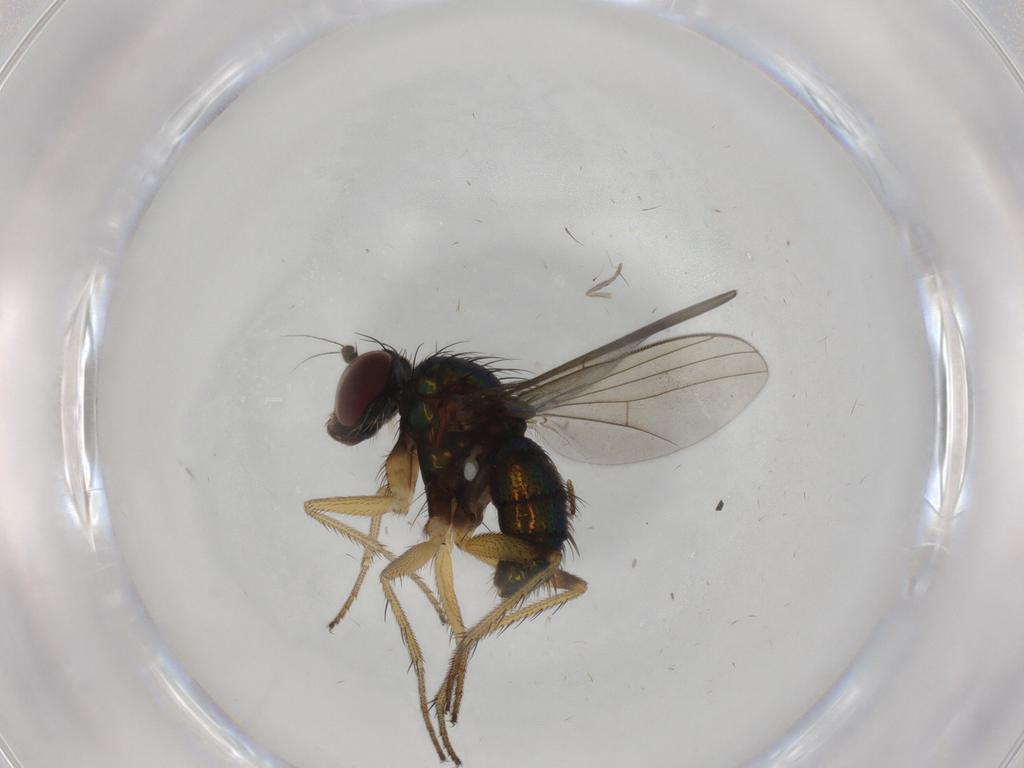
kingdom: Animalia
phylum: Arthropoda
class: Insecta
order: Diptera
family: Dolichopodidae
